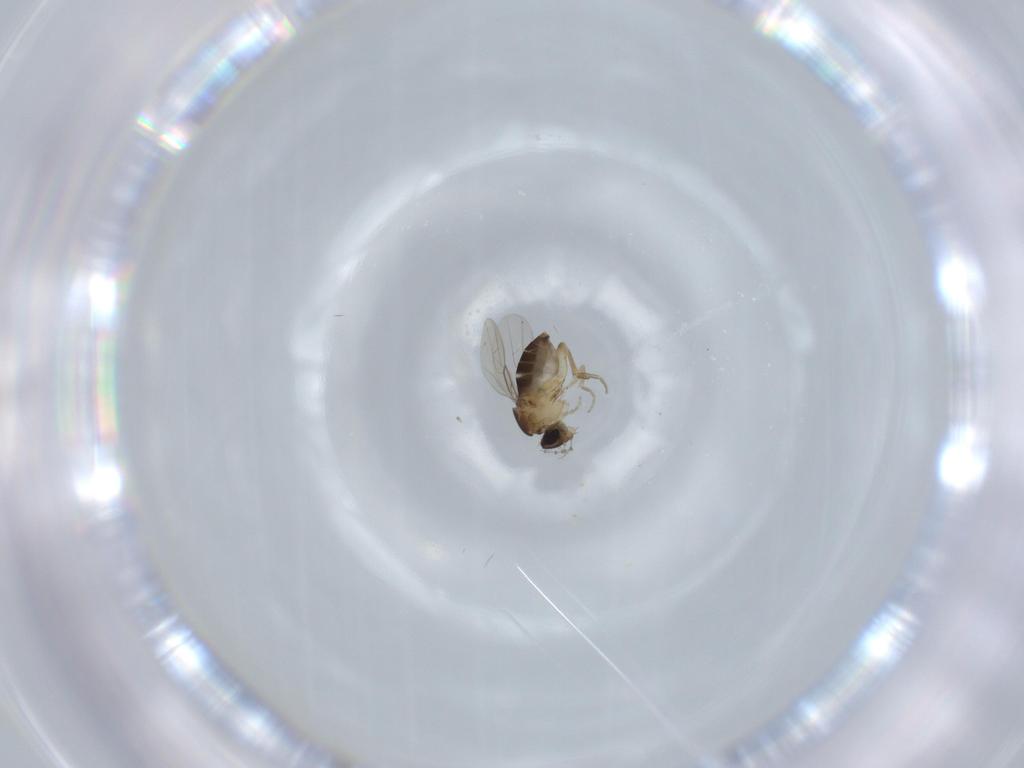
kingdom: Animalia
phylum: Arthropoda
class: Insecta
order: Diptera
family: Phoridae
